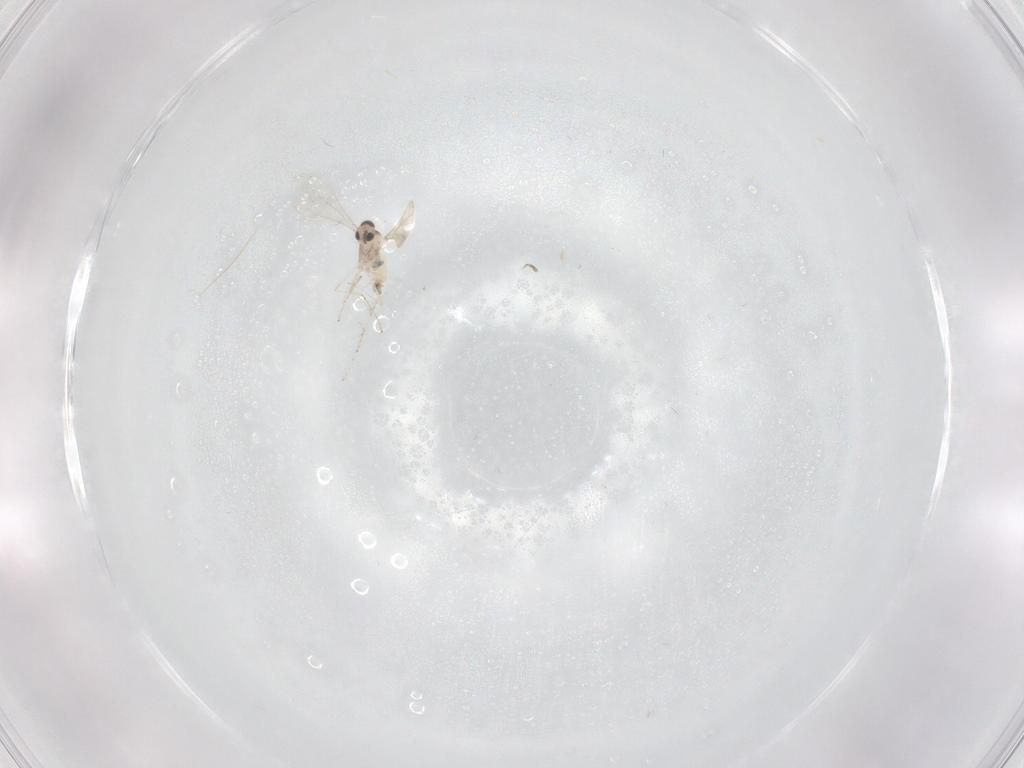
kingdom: Animalia
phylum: Arthropoda
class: Insecta
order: Diptera
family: Cecidomyiidae
